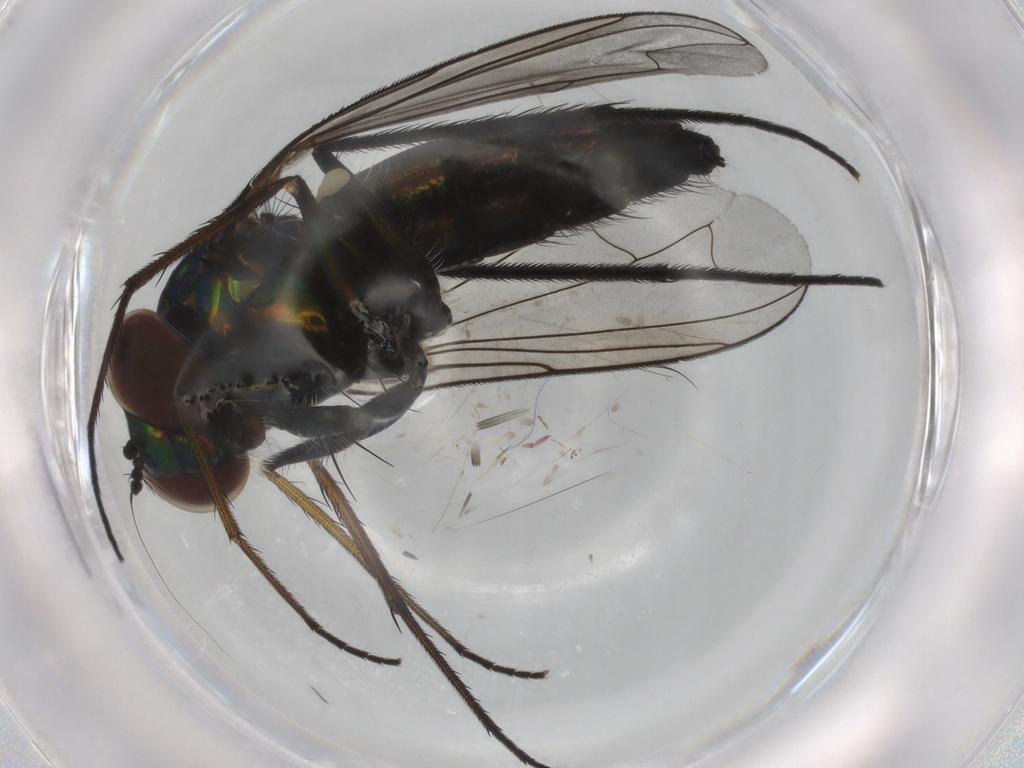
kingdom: Animalia
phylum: Arthropoda
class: Insecta
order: Diptera
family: Dolichopodidae
